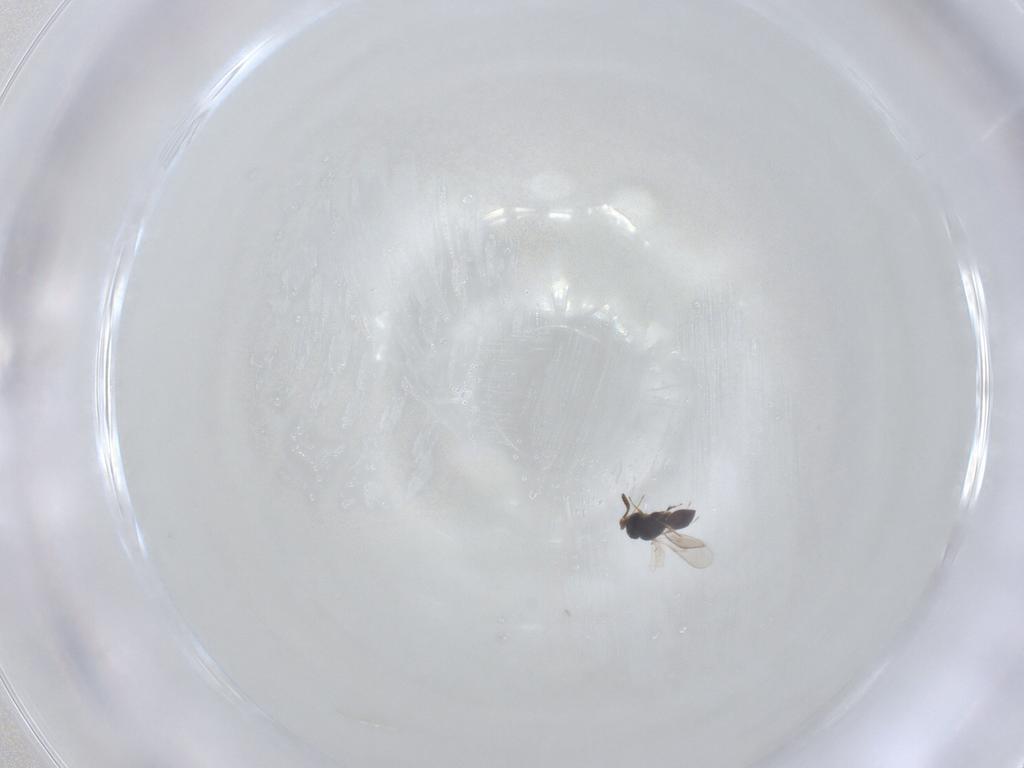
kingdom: Animalia
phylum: Arthropoda
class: Insecta
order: Hymenoptera
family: Scelionidae
